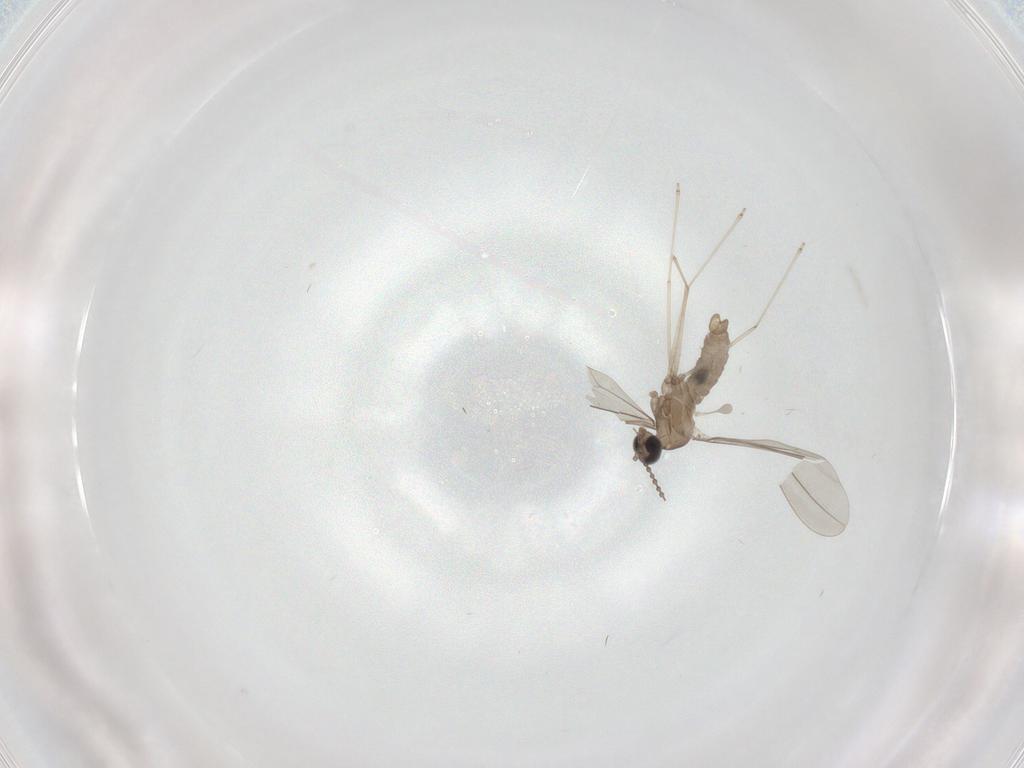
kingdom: Animalia
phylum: Arthropoda
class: Insecta
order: Diptera
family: Cecidomyiidae
